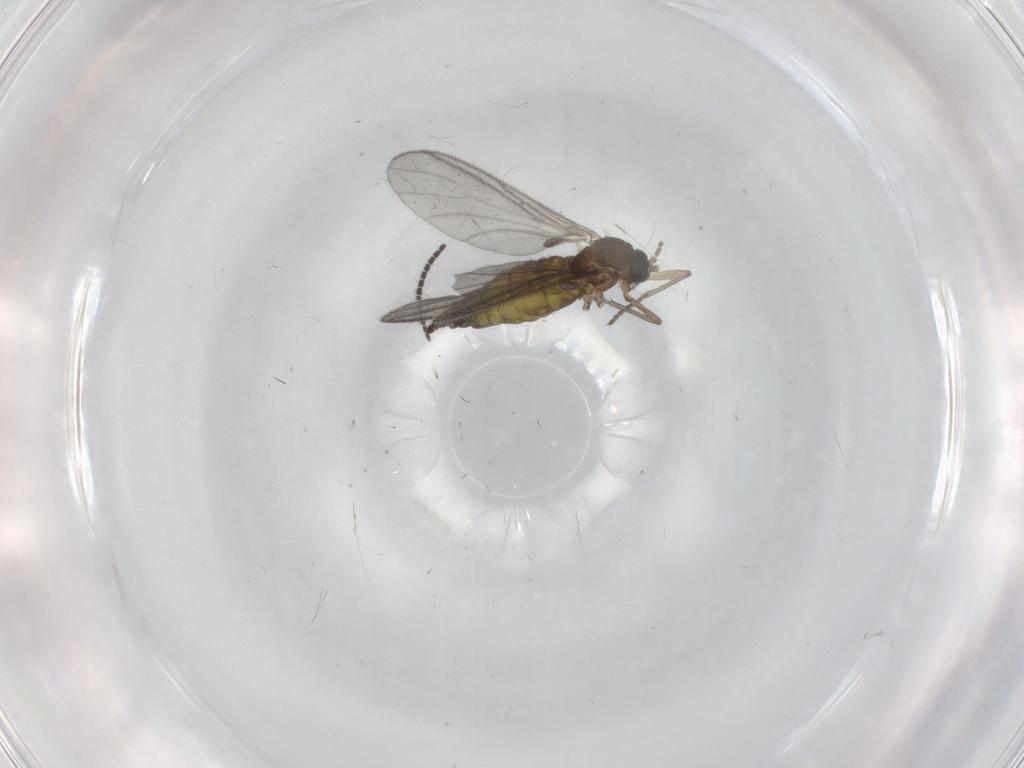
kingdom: Animalia
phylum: Arthropoda
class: Insecta
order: Diptera
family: Sciaridae
